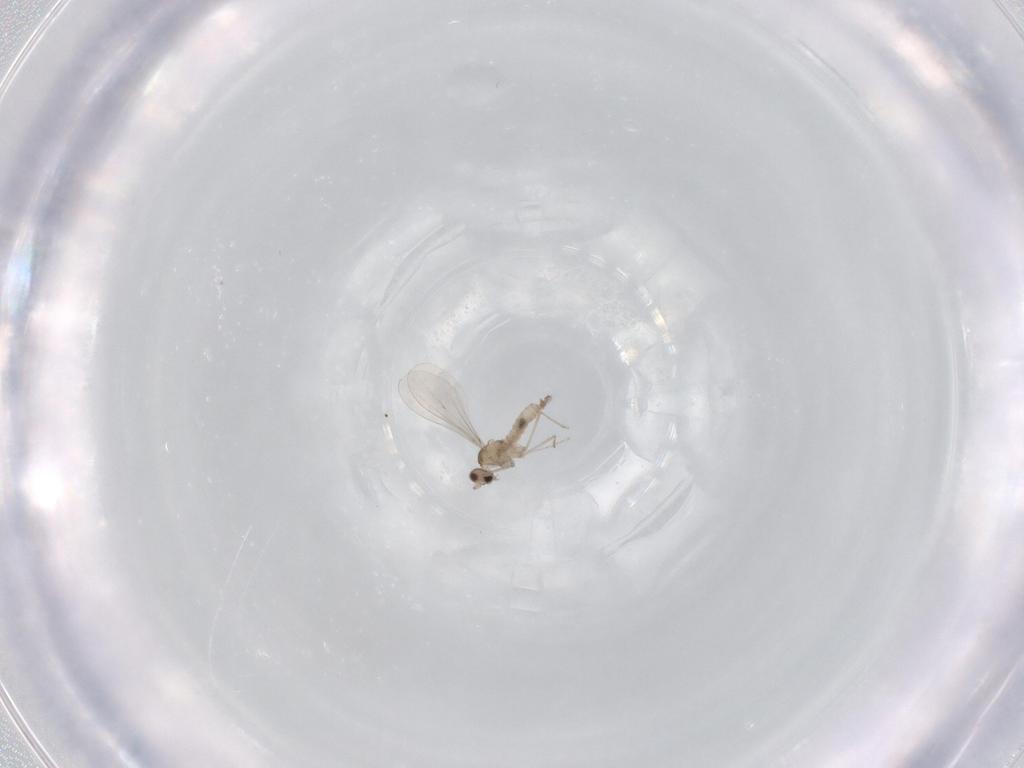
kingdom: Animalia
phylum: Arthropoda
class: Insecta
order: Diptera
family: Cecidomyiidae
